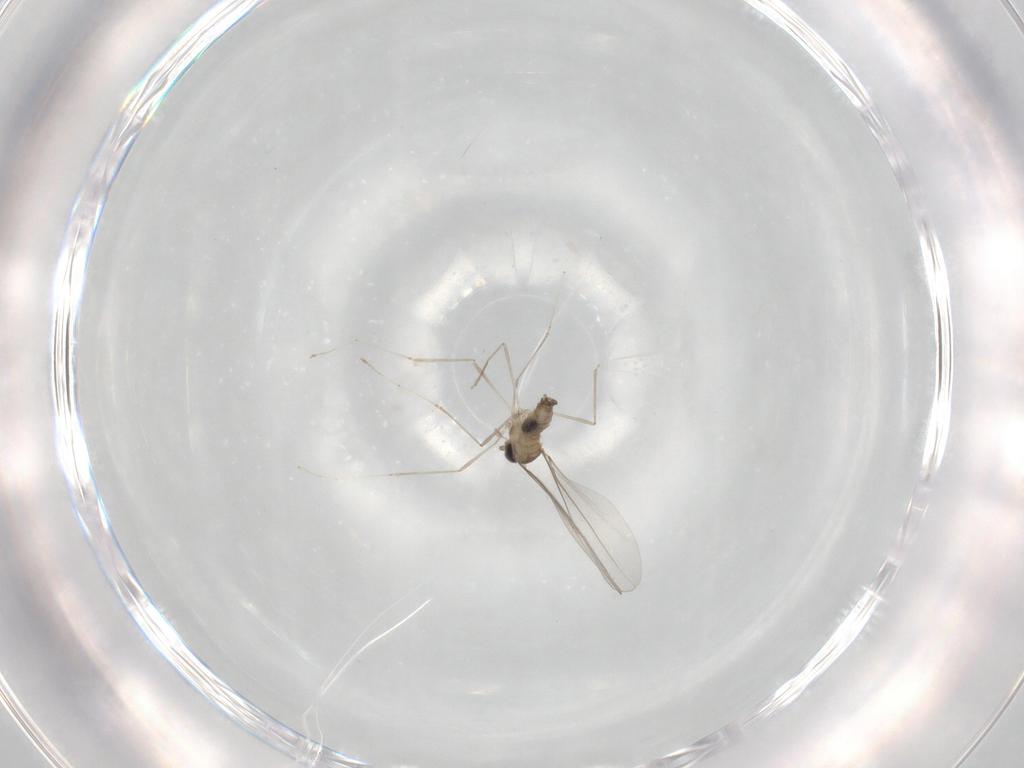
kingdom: Animalia
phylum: Arthropoda
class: Insecta
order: Diptera
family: Cecidomyiidae
